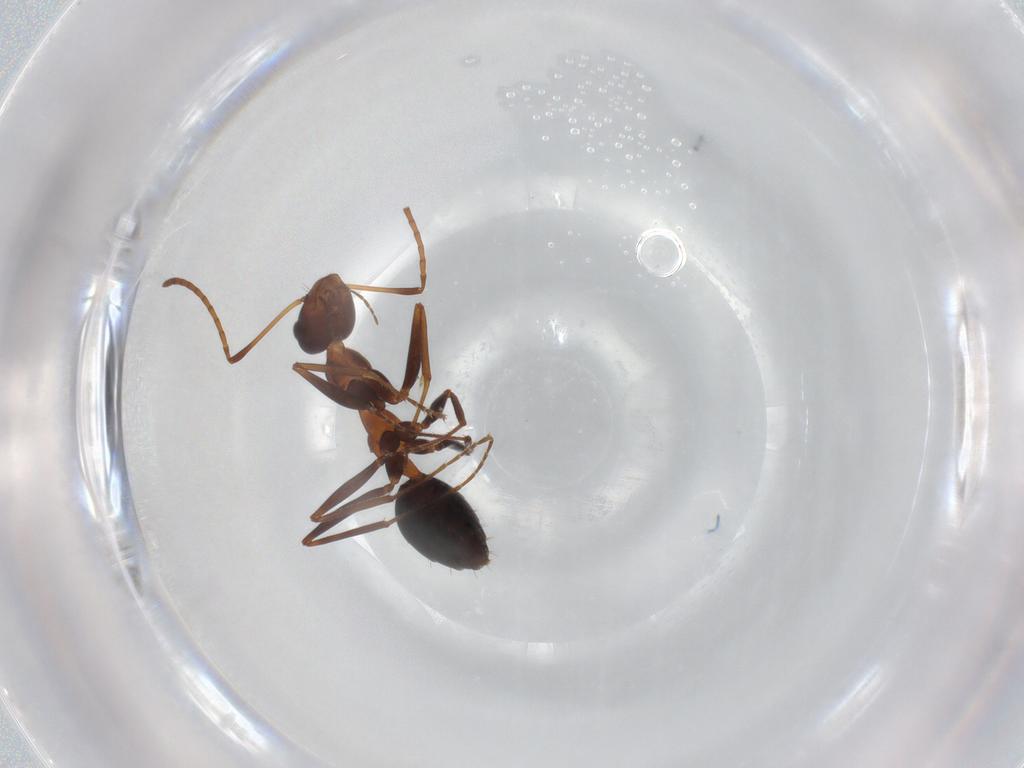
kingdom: Animalia
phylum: Arthropoda
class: Insecta
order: Hymenoptera
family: Formicidae
